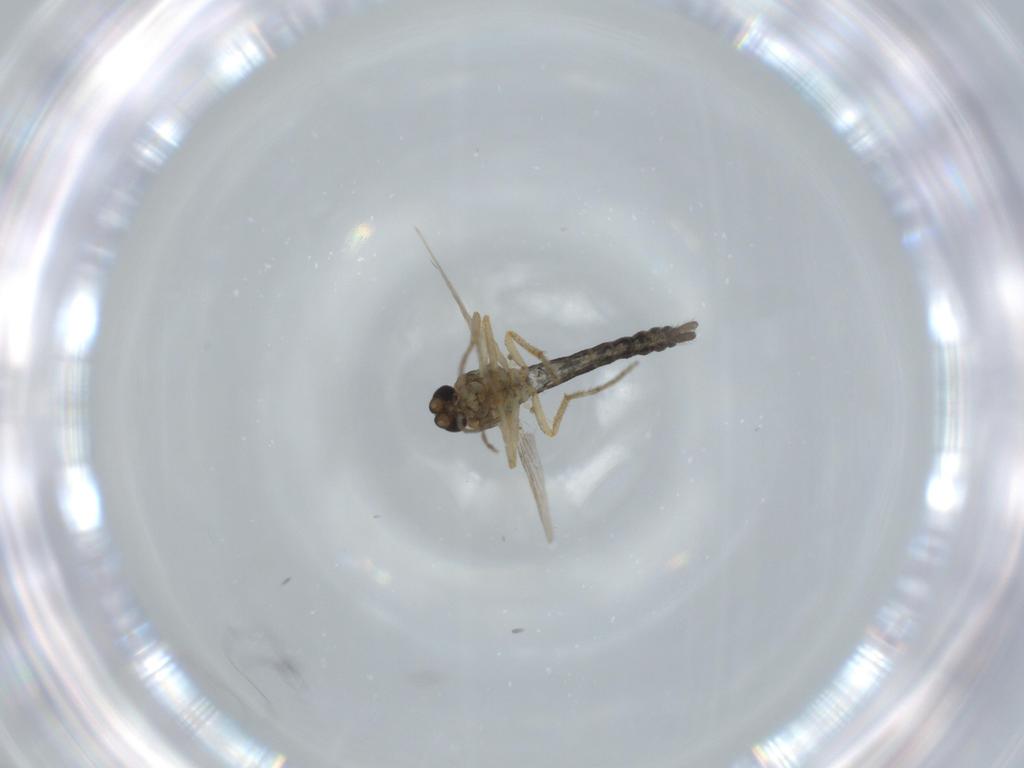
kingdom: Animalia
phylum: Arthropoda
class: Insecta
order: Diptera
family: Ceratopogonidae
